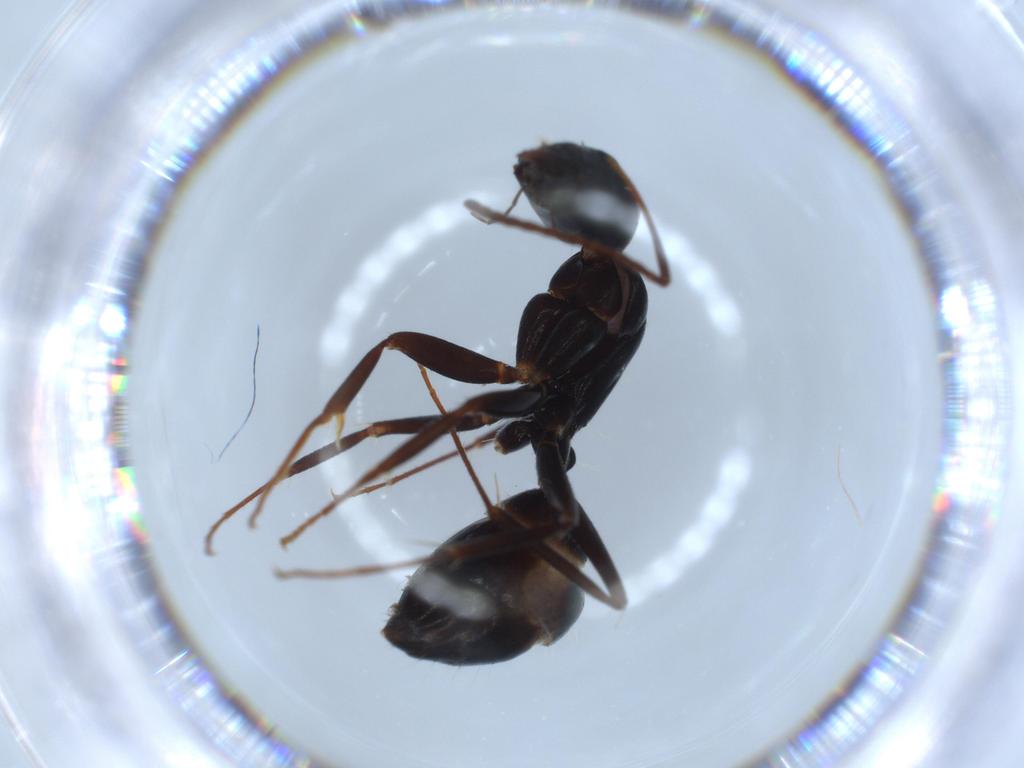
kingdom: Animalia
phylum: Arthropoda
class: Insecta
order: Hymenoptera
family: Formicidae
